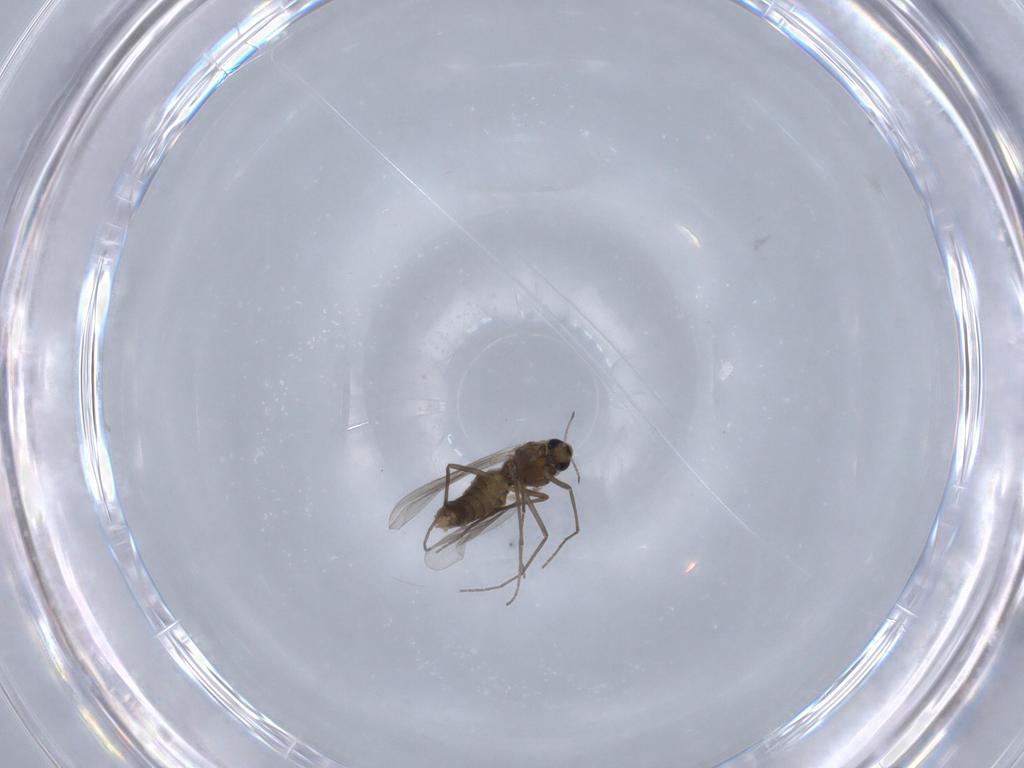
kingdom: Animalia
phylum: Arthropoda
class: Insecta
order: Diptera
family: Chironomidae
